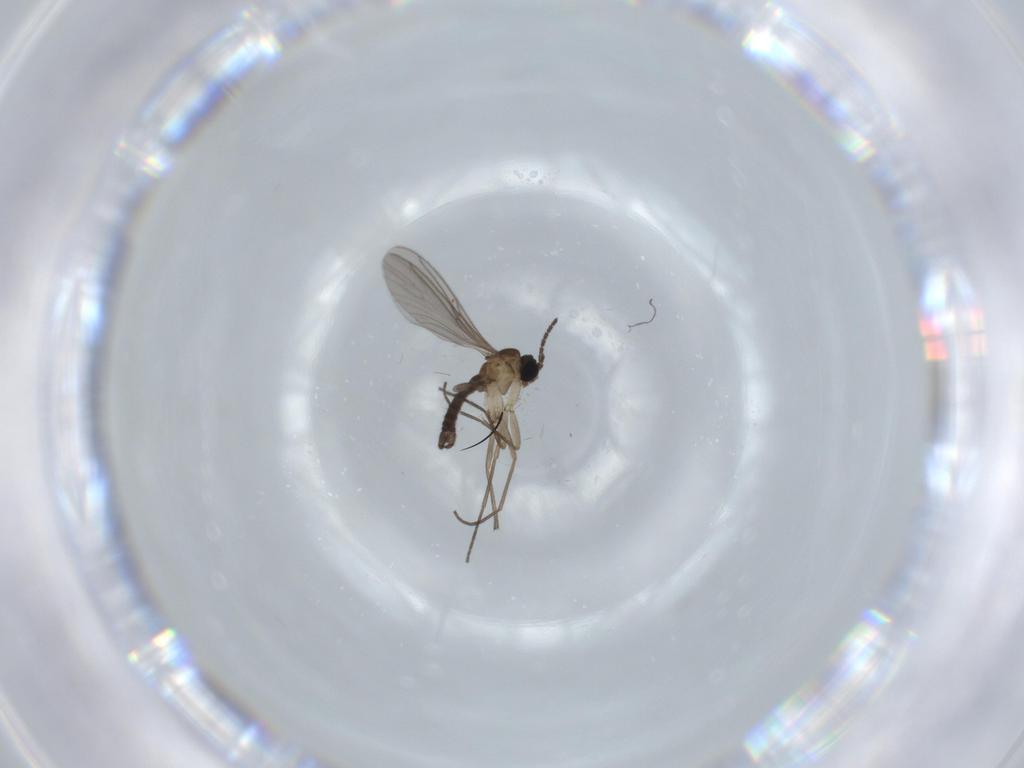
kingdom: Animalia
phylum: Arthropoda
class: Insecta
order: Diptera
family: Sciaridae
